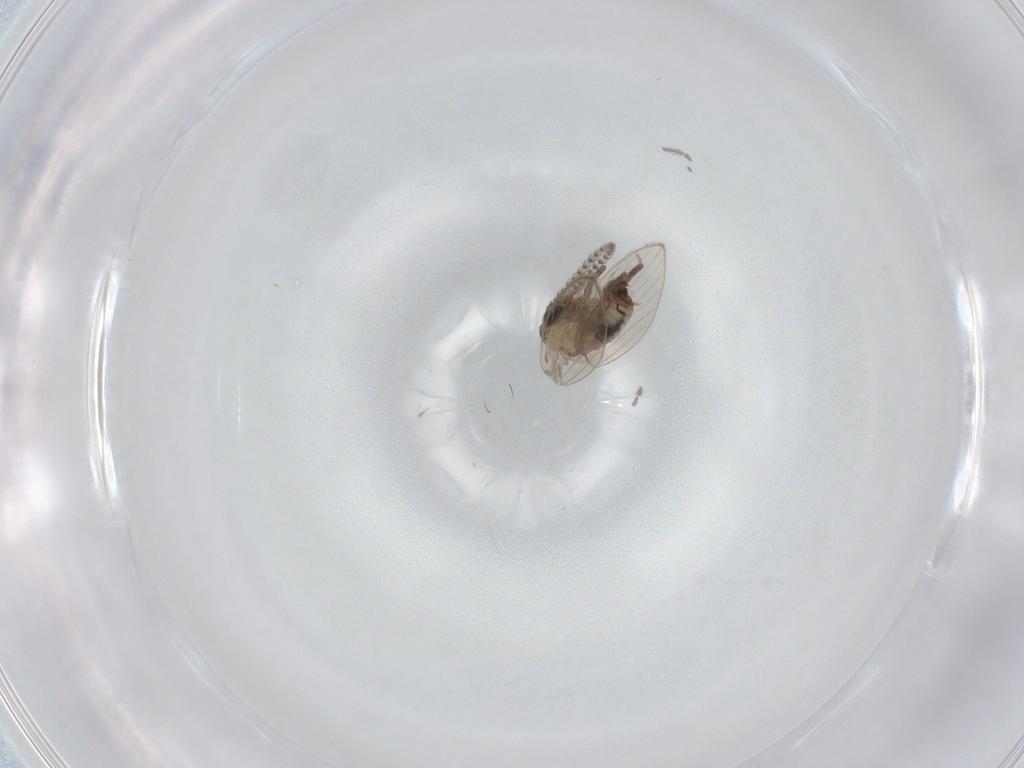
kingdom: Animalia
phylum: Arthropoda
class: Insecta
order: Diptera
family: Psychodidae
